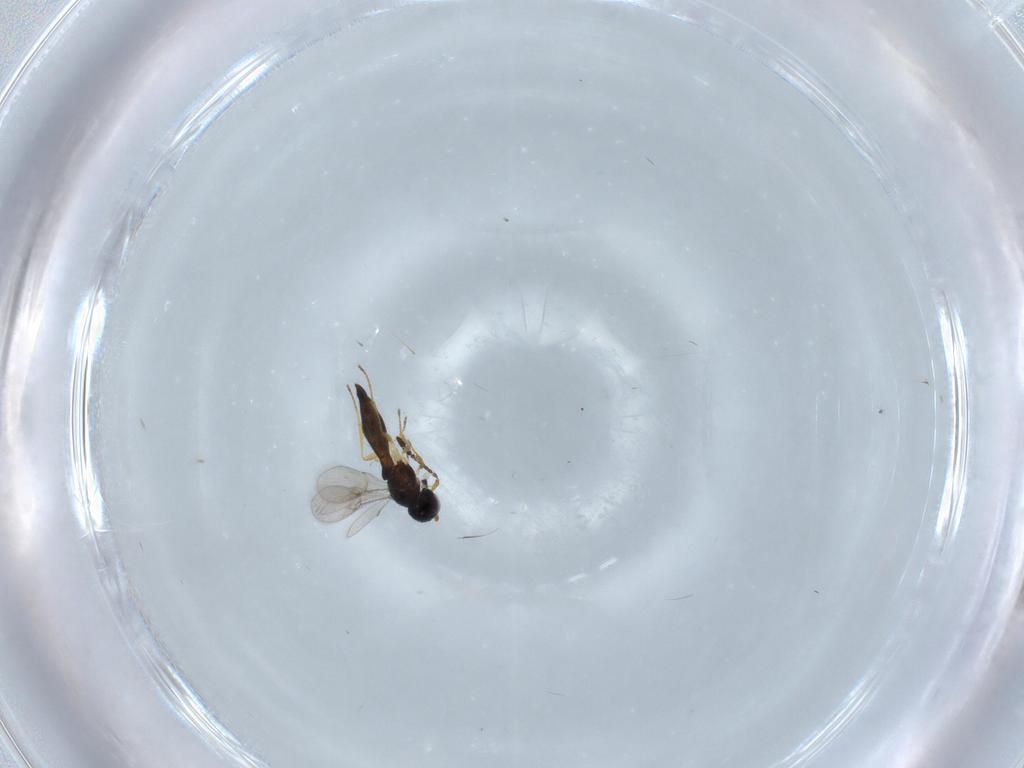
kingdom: Animalia
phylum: Arthropoda
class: Insecta
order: Hymenoptera
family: Scelionidae
